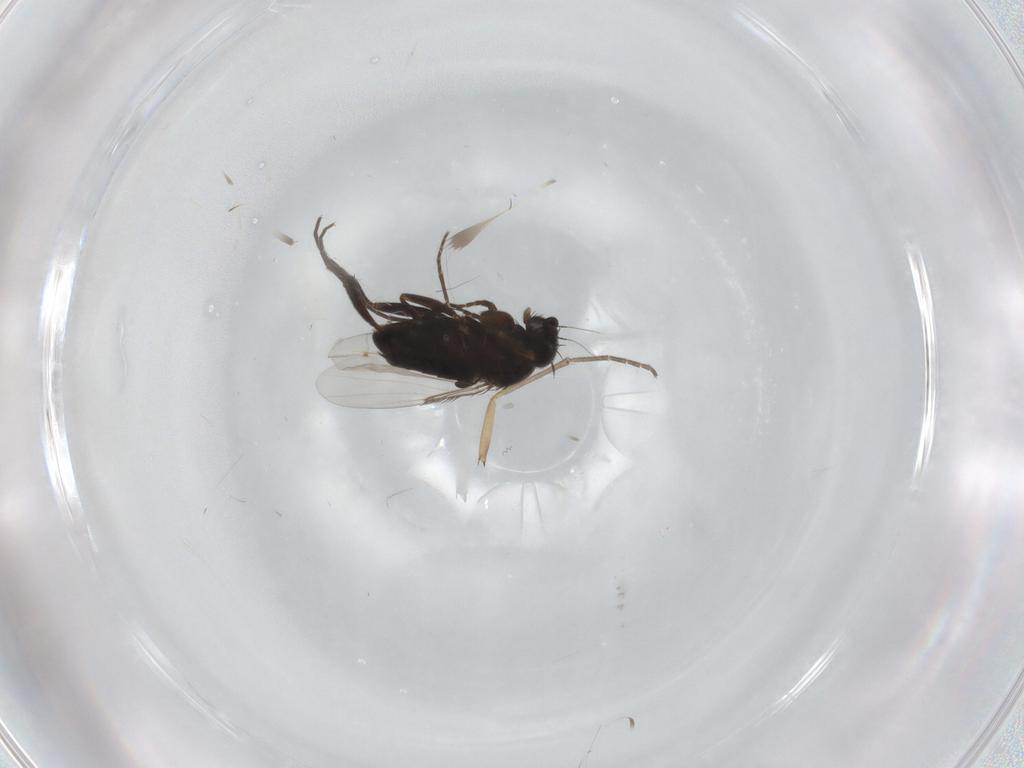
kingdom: Animalia
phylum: Arthropoda
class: Insecta
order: Diptera
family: Phoridae
